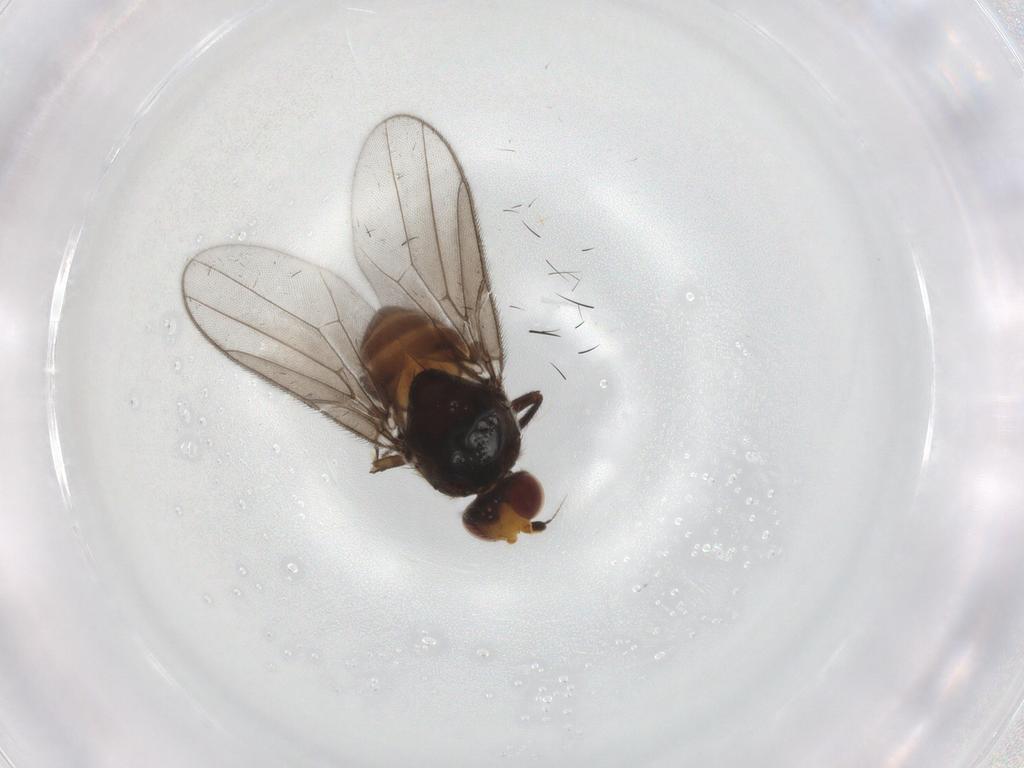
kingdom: Animalia
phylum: Arthropoda
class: Insecta
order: Diptera
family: Chloropidae
